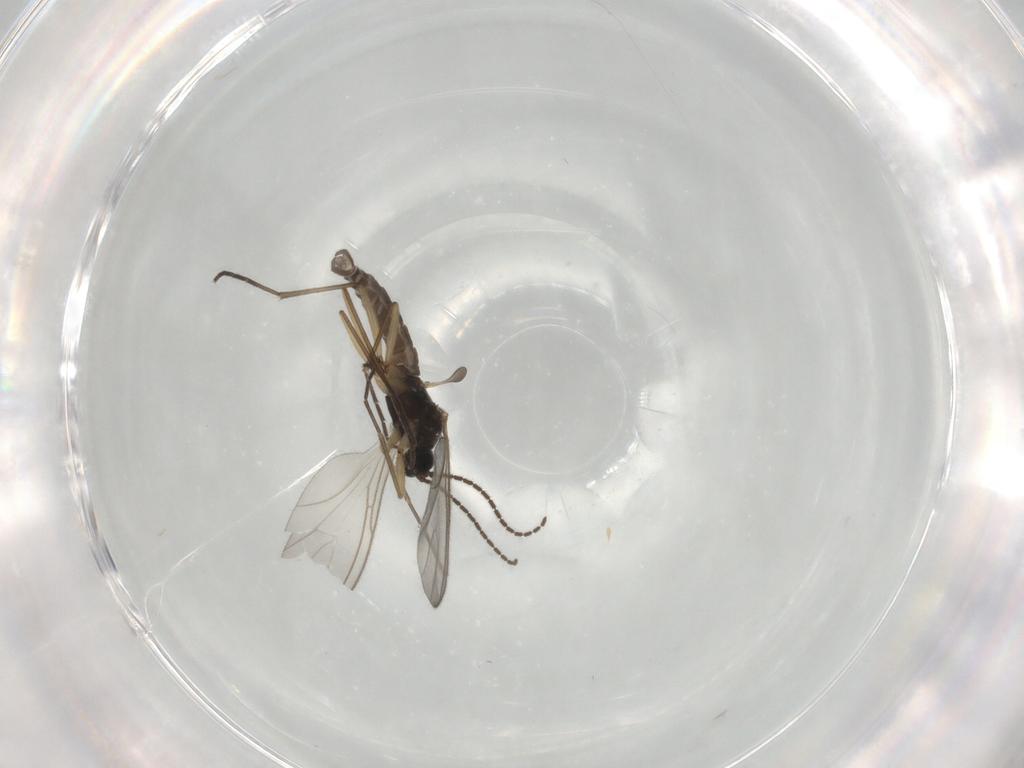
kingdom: Animalia
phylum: Arthropoda
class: Insecta
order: Diptera
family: Sciaridae
